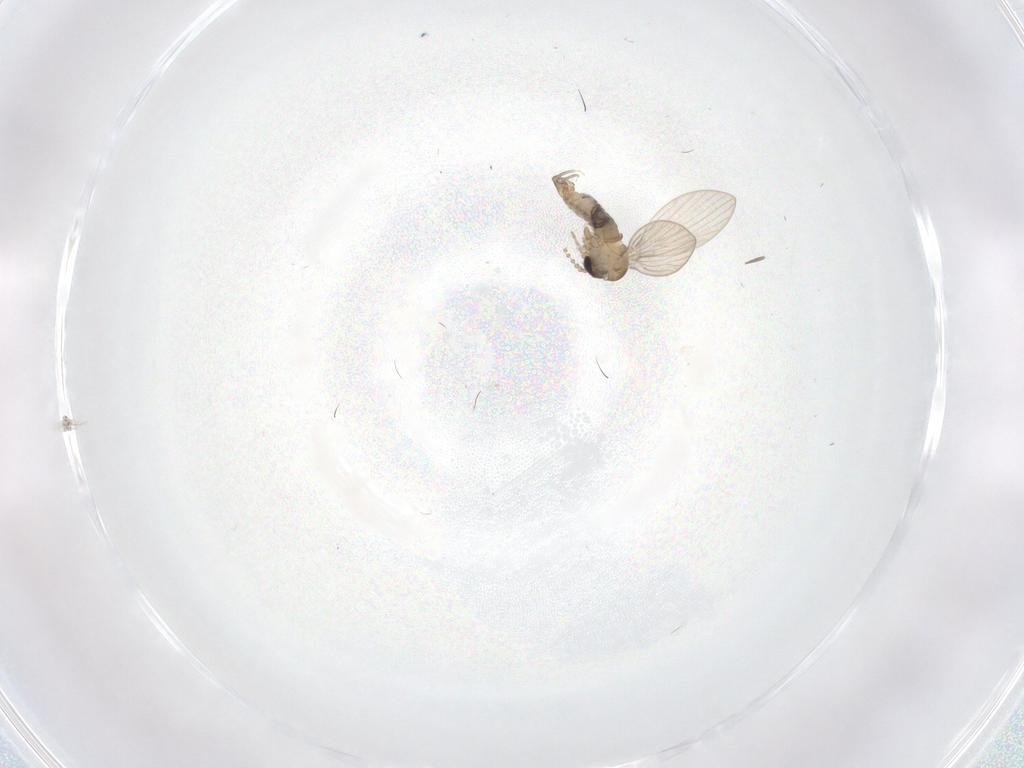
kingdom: Animalia
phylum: Arthropoda
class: Insecta
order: Diptera
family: Psychodidae
